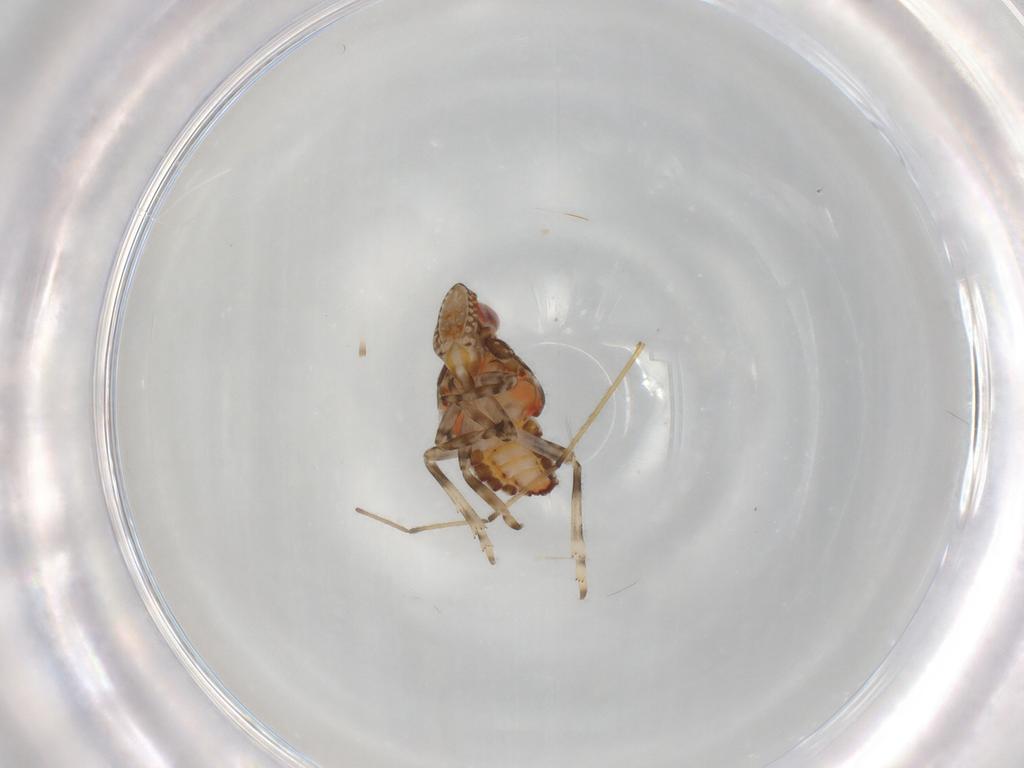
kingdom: Animalia
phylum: Arthropoda
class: Insecta
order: Hemiptera
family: Tropiduchidae
